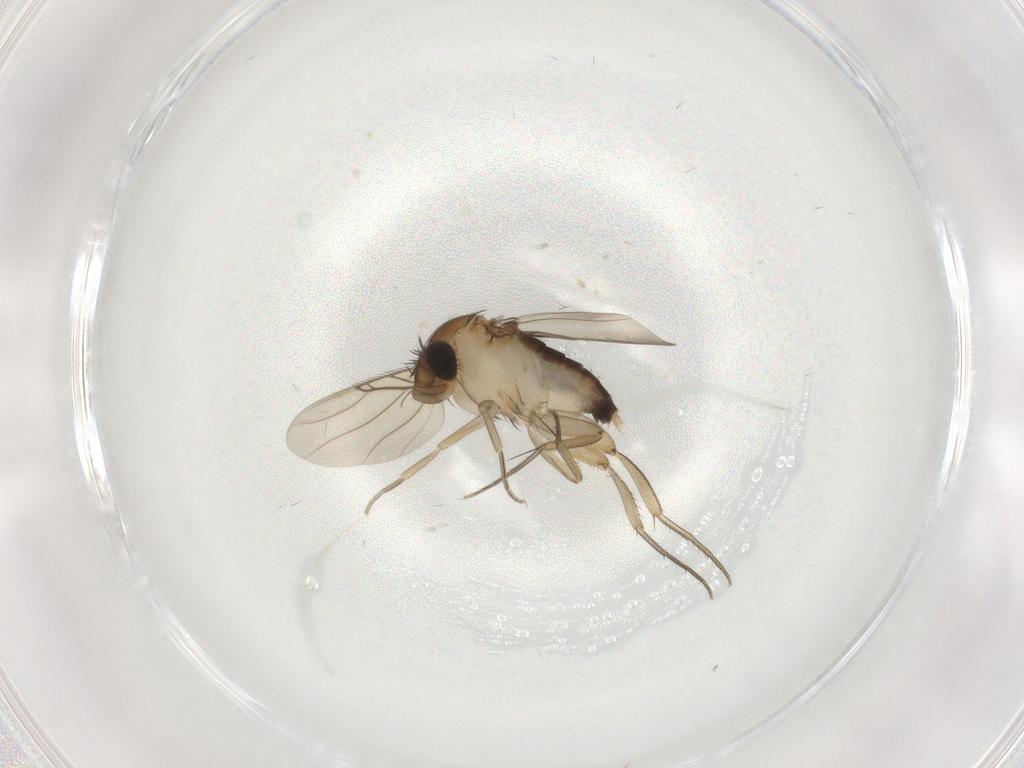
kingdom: Animalia
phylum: Arthropoda
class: Insecta
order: Diptera
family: Phoridae
